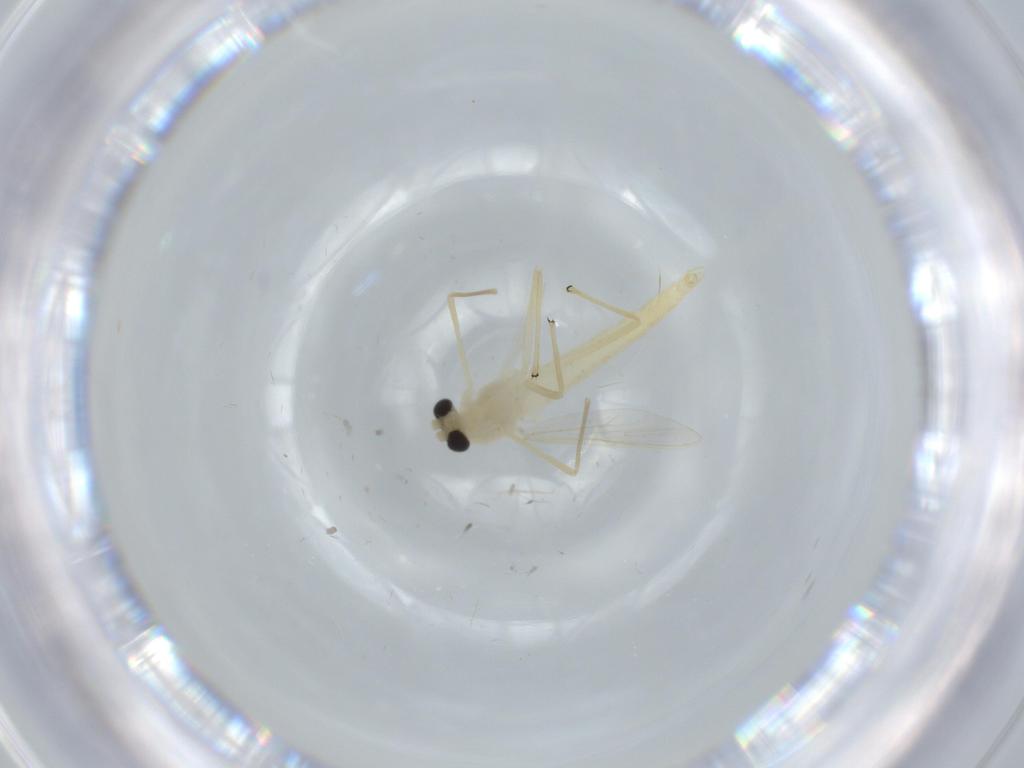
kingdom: Animalia
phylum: Arthropoda
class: Insecta
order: Diptera
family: Chironomidae
